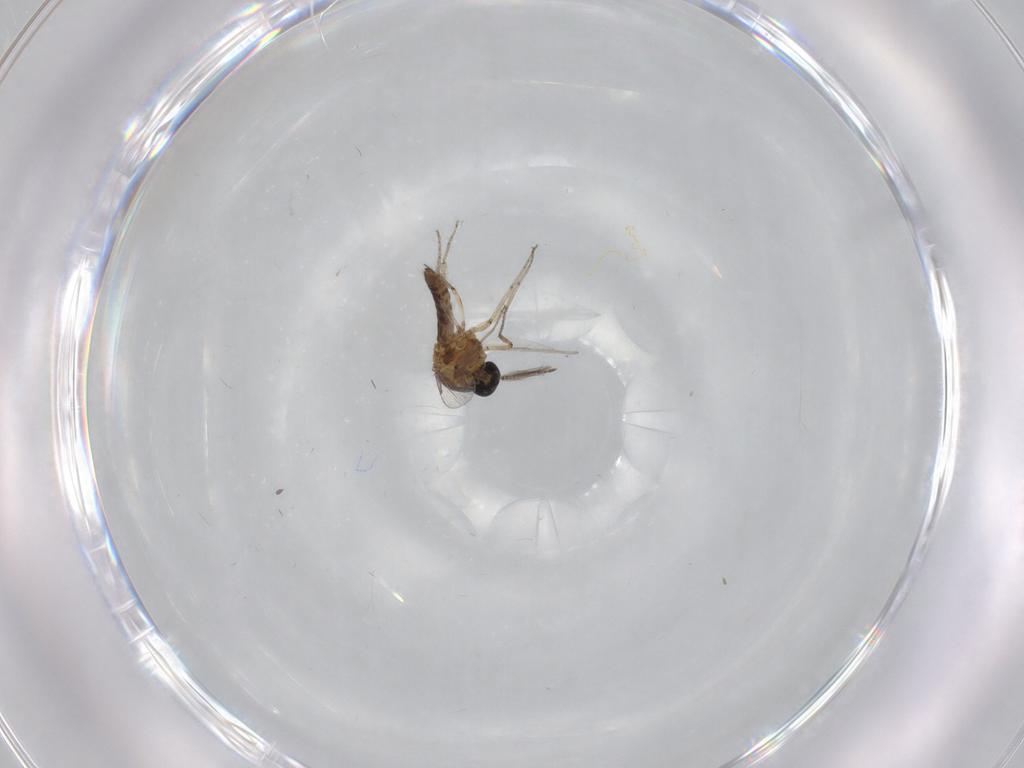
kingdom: Animalia
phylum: Arthropoda
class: Insecta
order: Diptera
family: Ceratopogonidae
